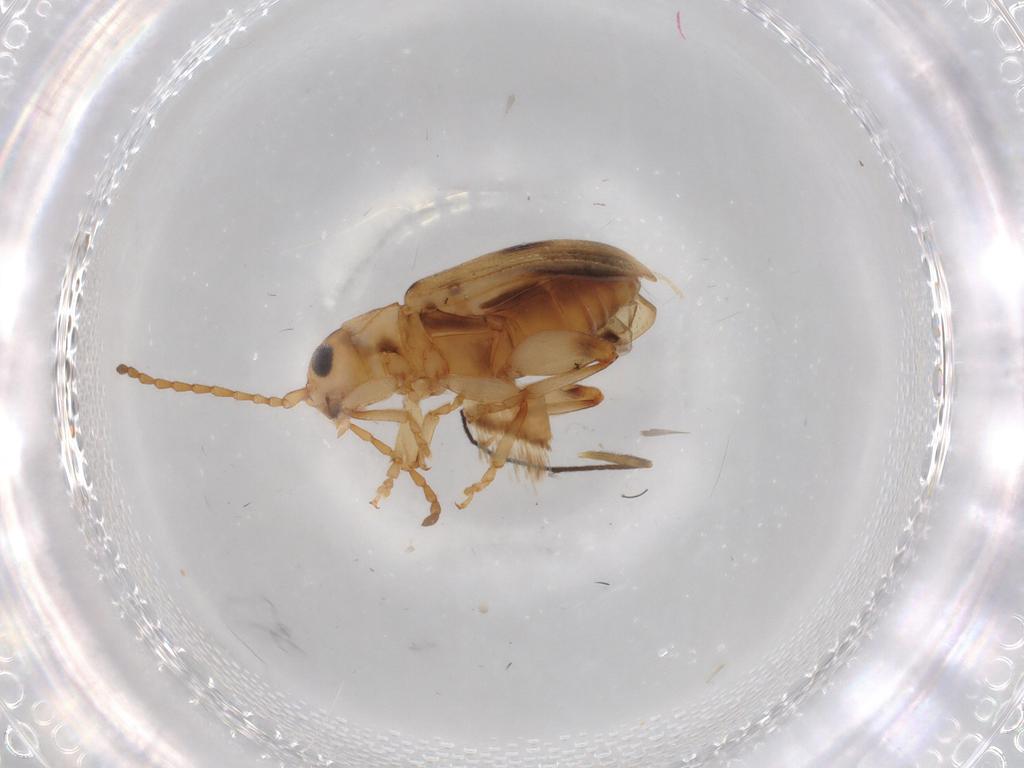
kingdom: Animalia
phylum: Arthropoda
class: Insecta
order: Coleoptera
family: Chrysomelidae
